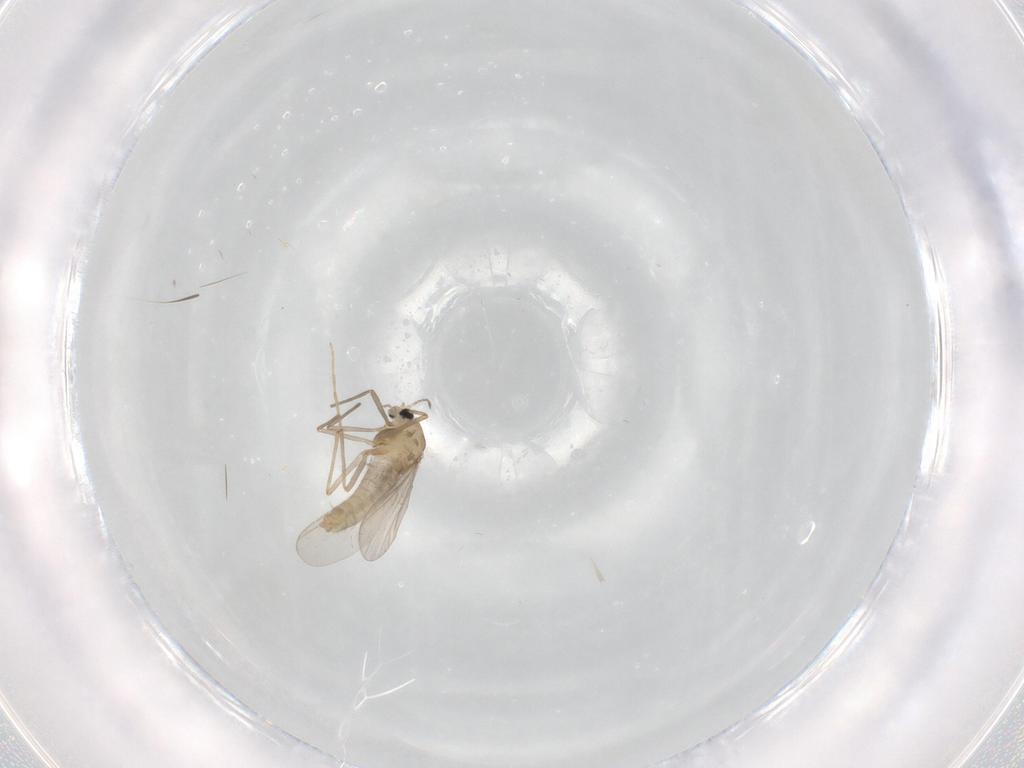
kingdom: Animalia
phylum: Arthropoda
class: Insecta
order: Diptera
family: Chironomidae
